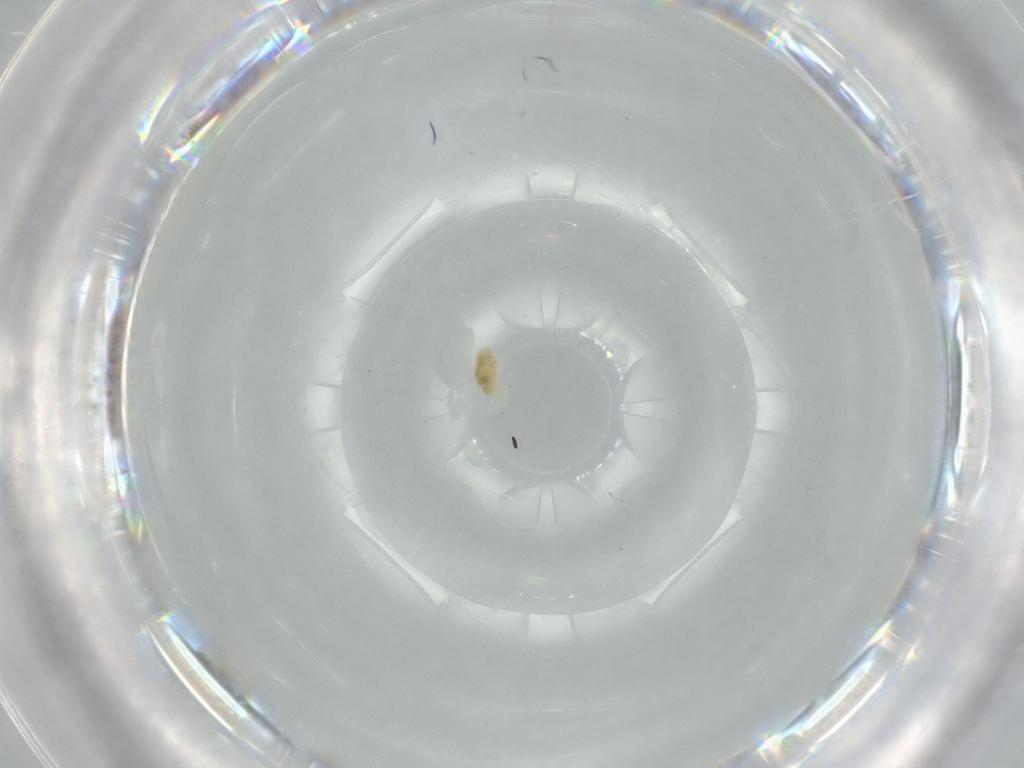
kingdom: Animalia
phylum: Arthropoda
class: Arachnida
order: Trombidiformes
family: Eupodidae
